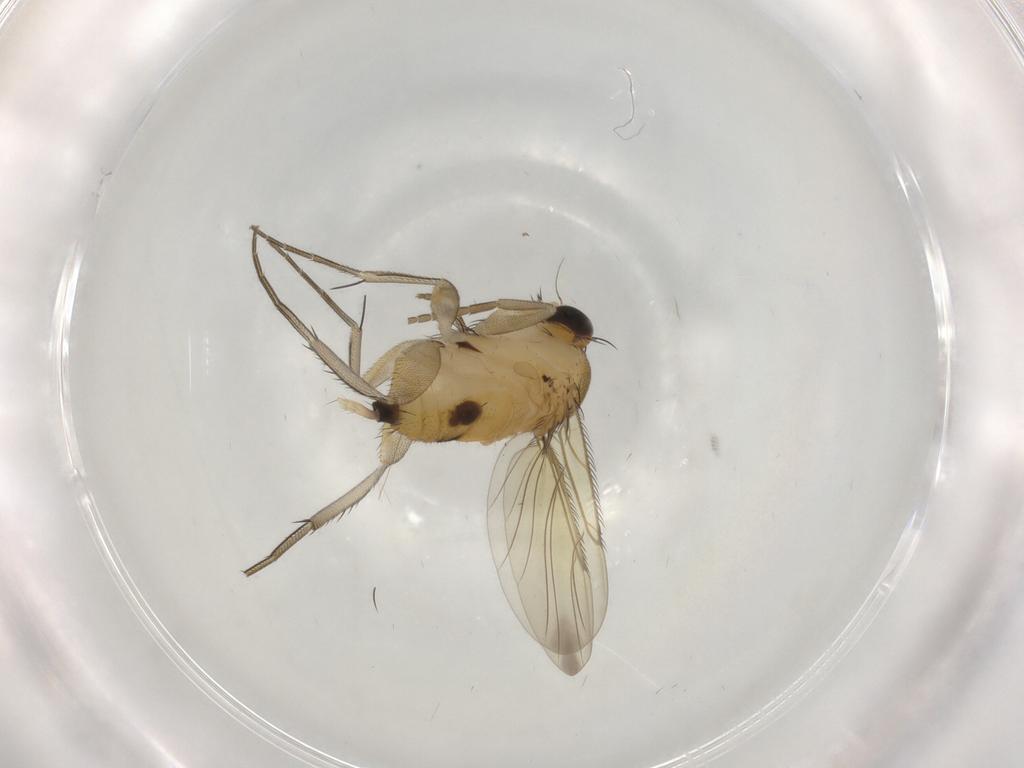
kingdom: Animalia
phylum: Arthropoda
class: Insecta
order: Diptera
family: Phoridae
